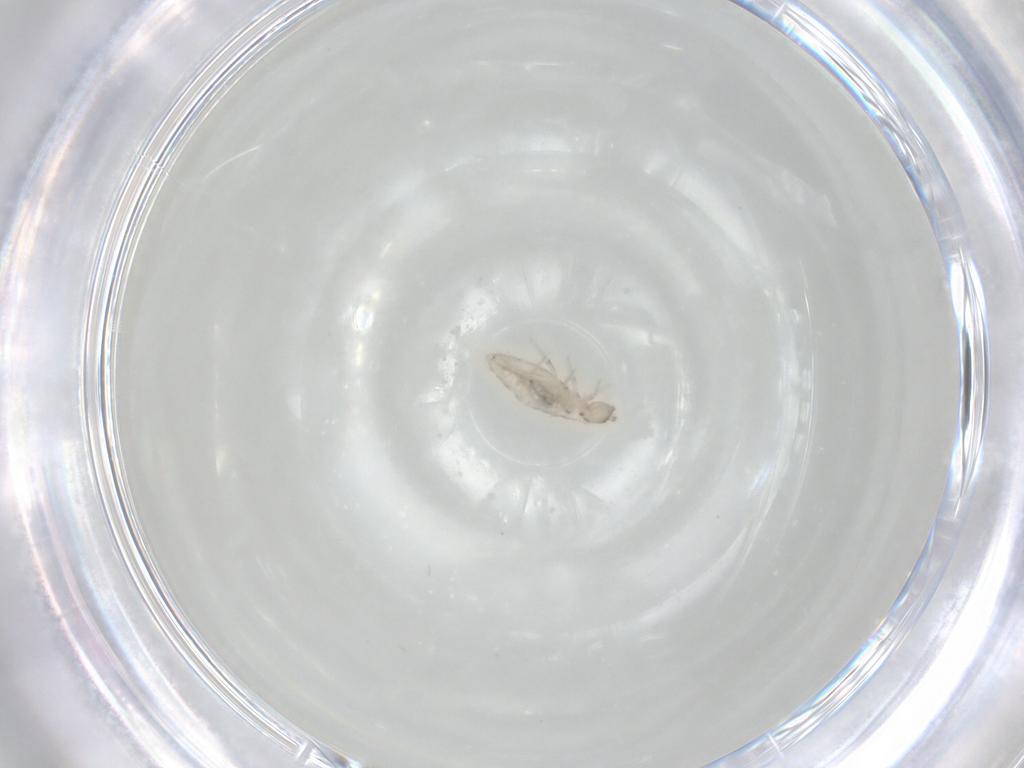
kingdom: Animalia
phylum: Arthropoda
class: Collembola
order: Entomobryomorpha
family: Entomobryidae
